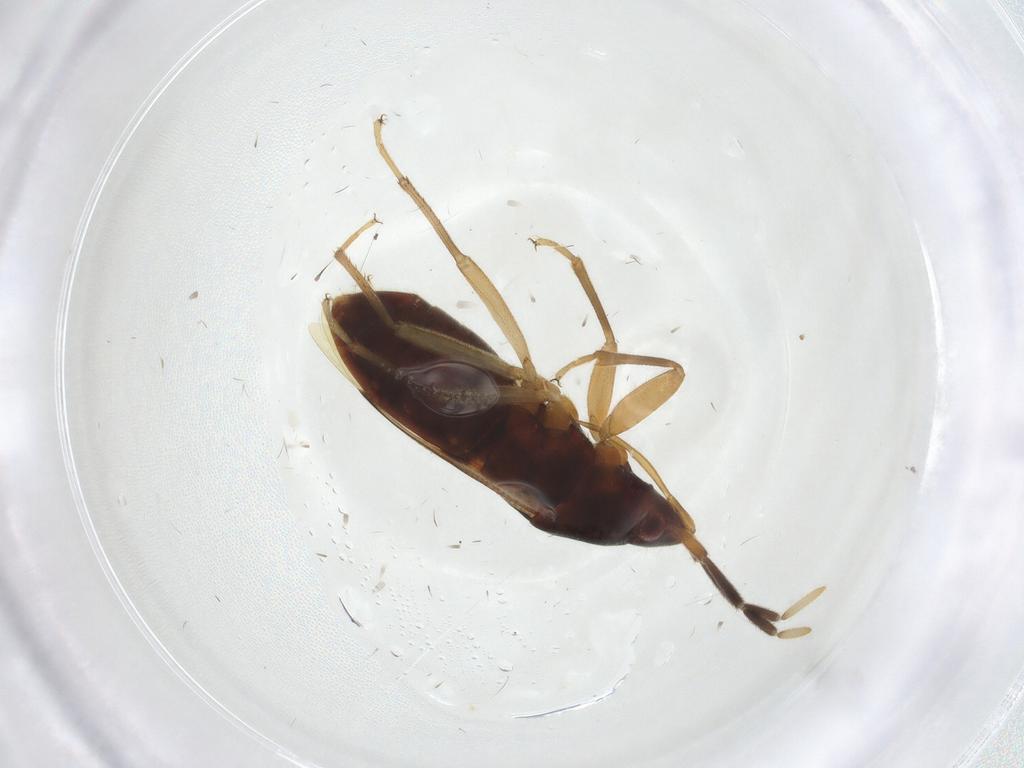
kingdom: Animalia
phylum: Arthropoda
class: Insecta
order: Hemiptera
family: Rhyparochromidae
